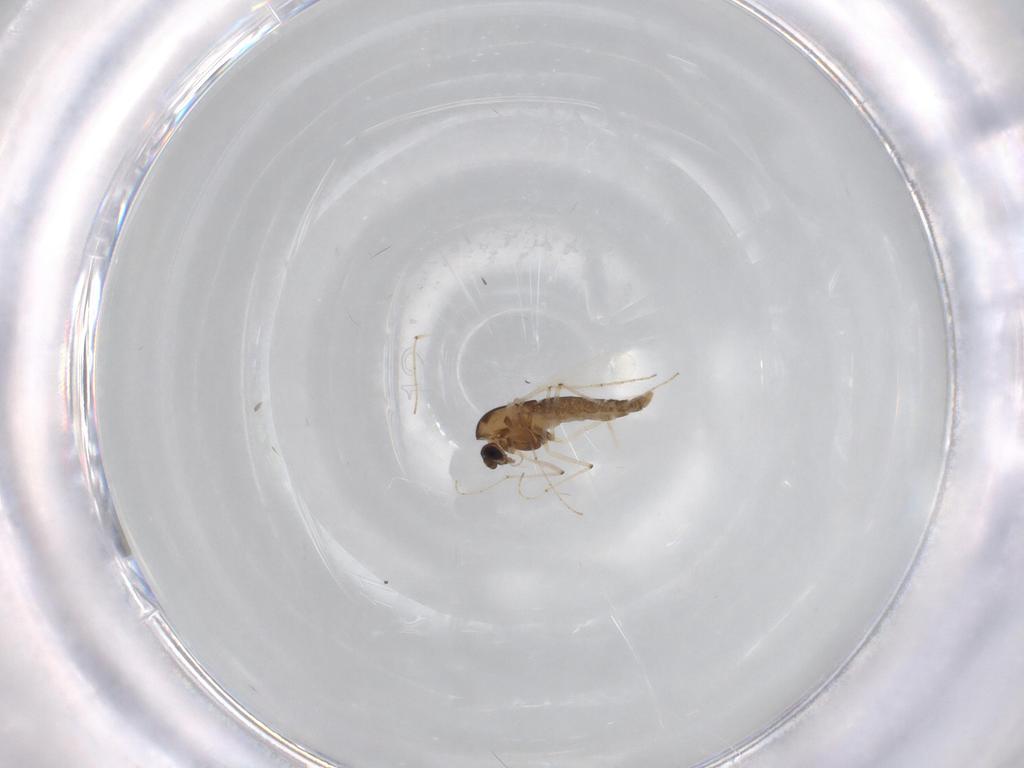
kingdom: Animalia
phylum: Arthropoda
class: Insecta
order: Diptera
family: Chironomidae
